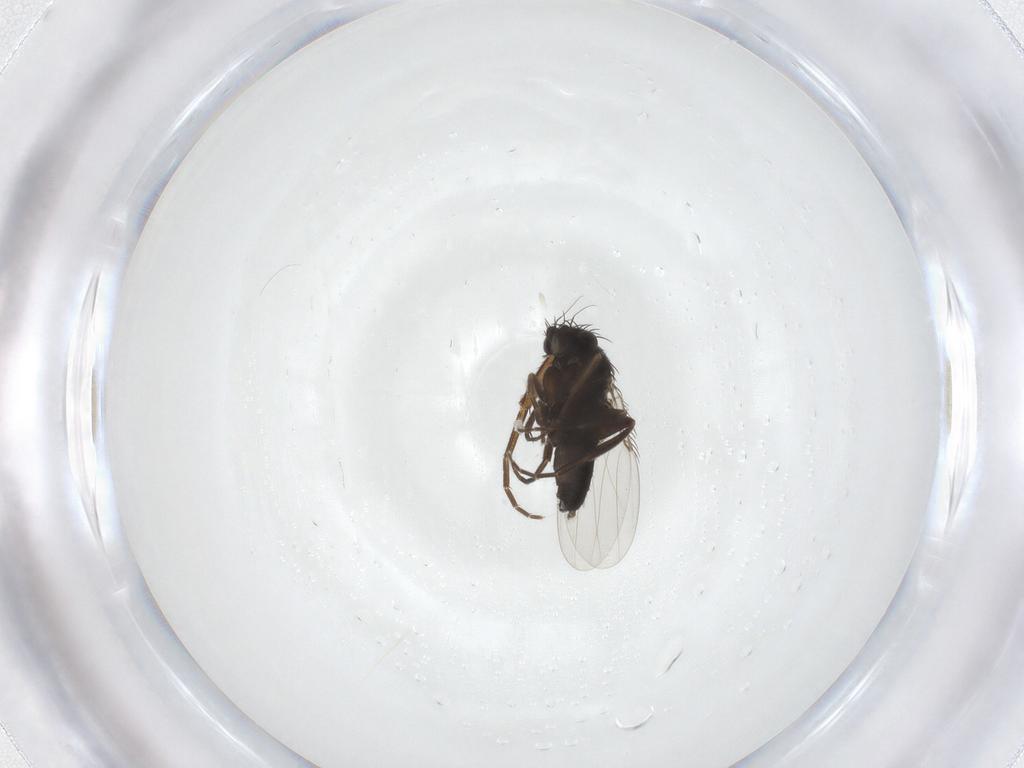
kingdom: Animalia
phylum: Arthropoda
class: Insecta
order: Diptera
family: Phoridae
